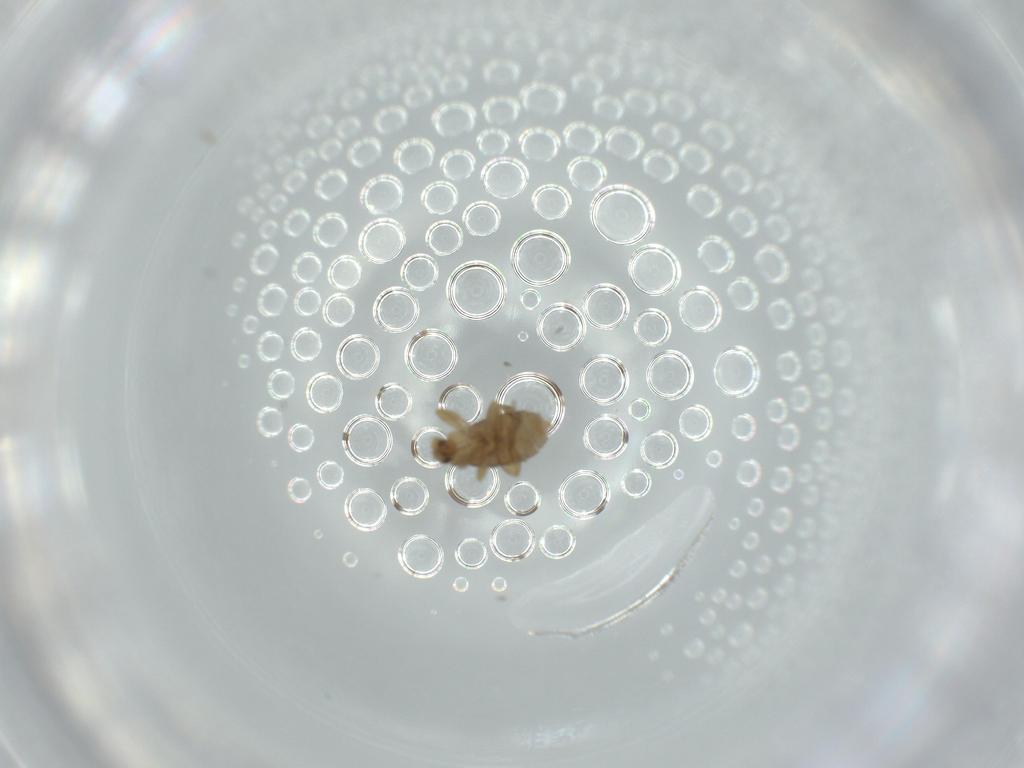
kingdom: Animalia
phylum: Arthropoda
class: Insecta
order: Diptera
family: Phoridae
